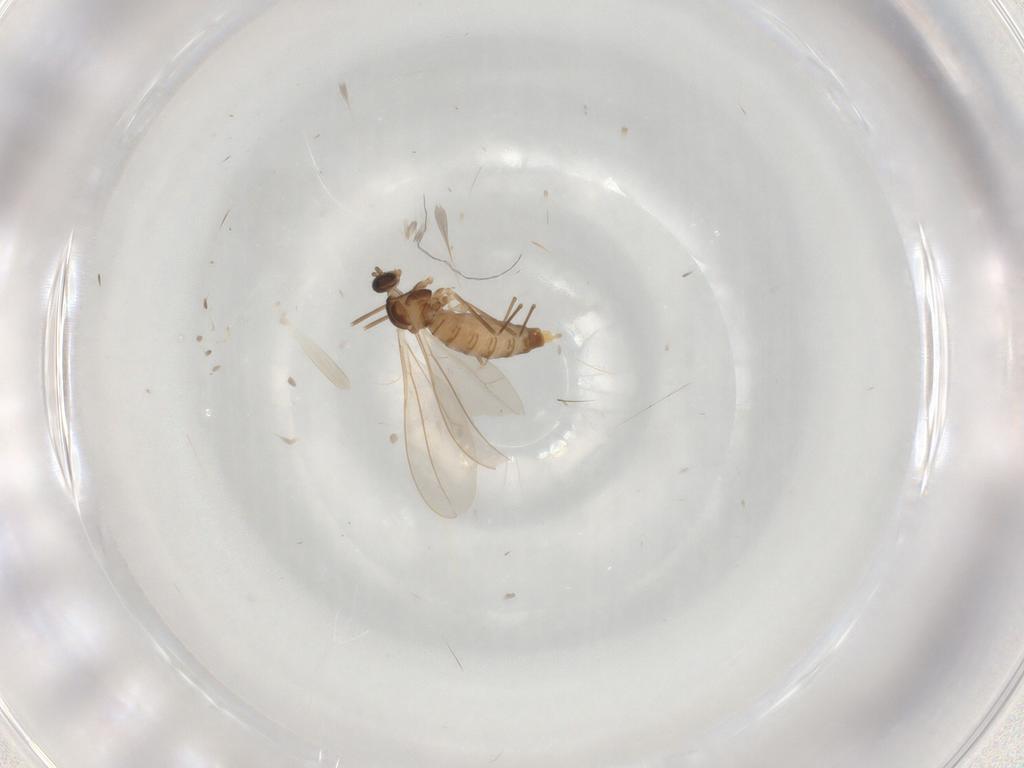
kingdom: Animalia
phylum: Arthropoda
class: Insecta
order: Diptera
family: Cecidomyiidae
